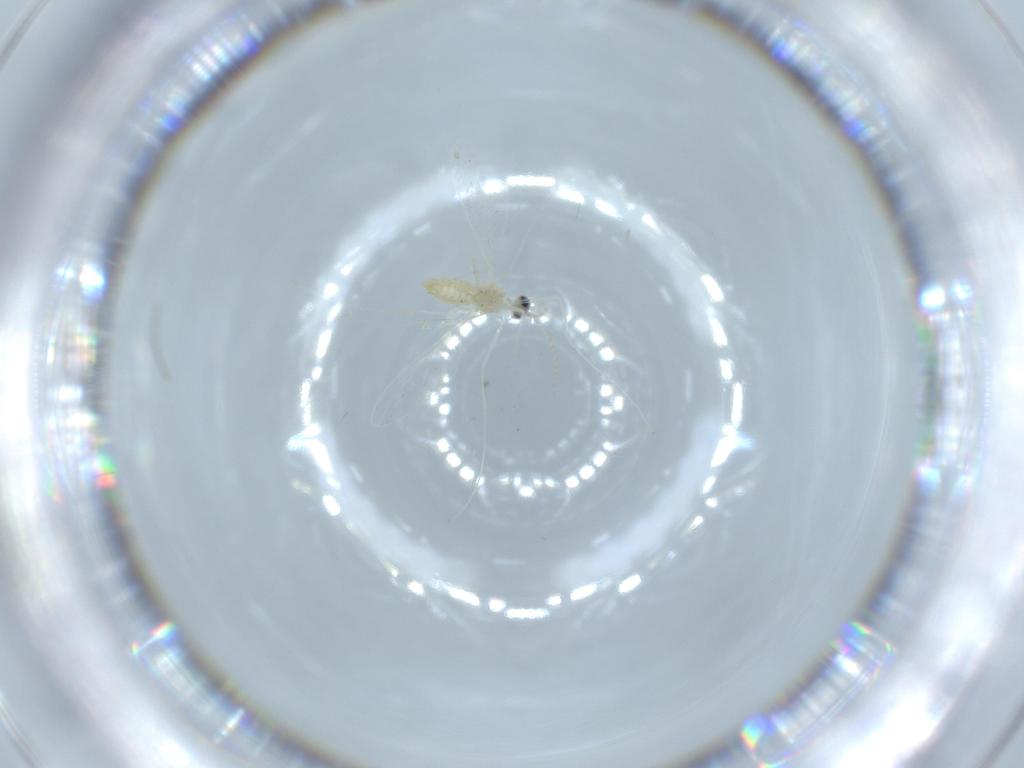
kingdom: Animalia
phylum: Arthropoda
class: Insecta
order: Diptera
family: Cecidomyiidae
